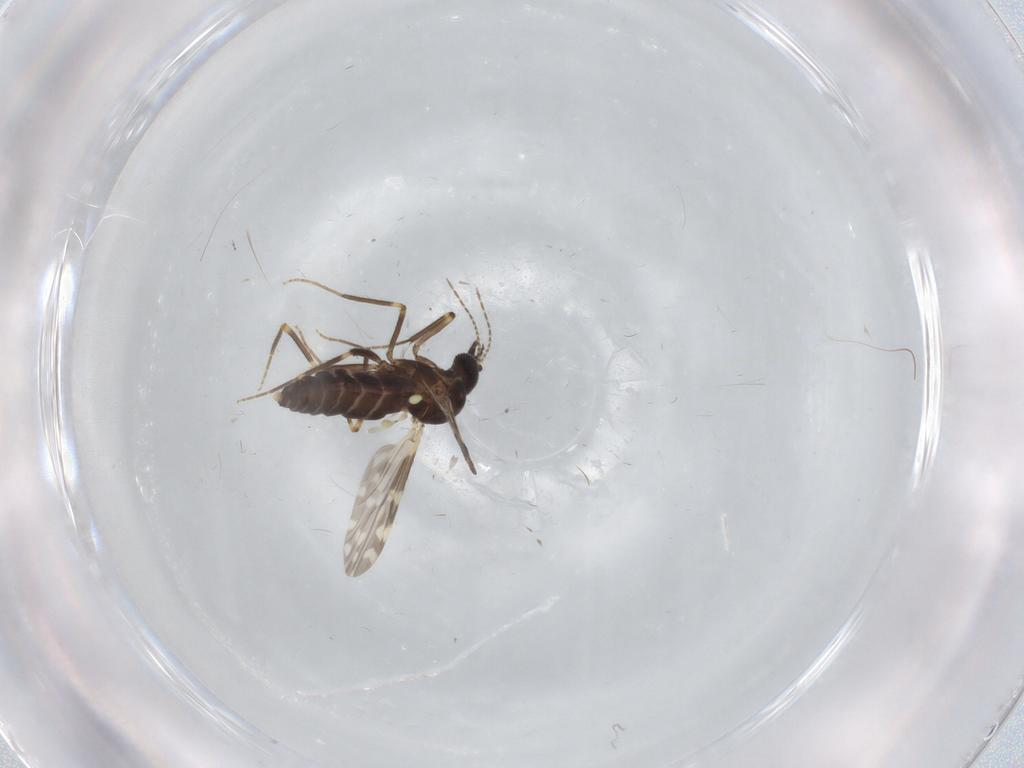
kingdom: Animalia
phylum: Arthropoda
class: Insecta
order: Diptera
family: Ceratopogonidae
